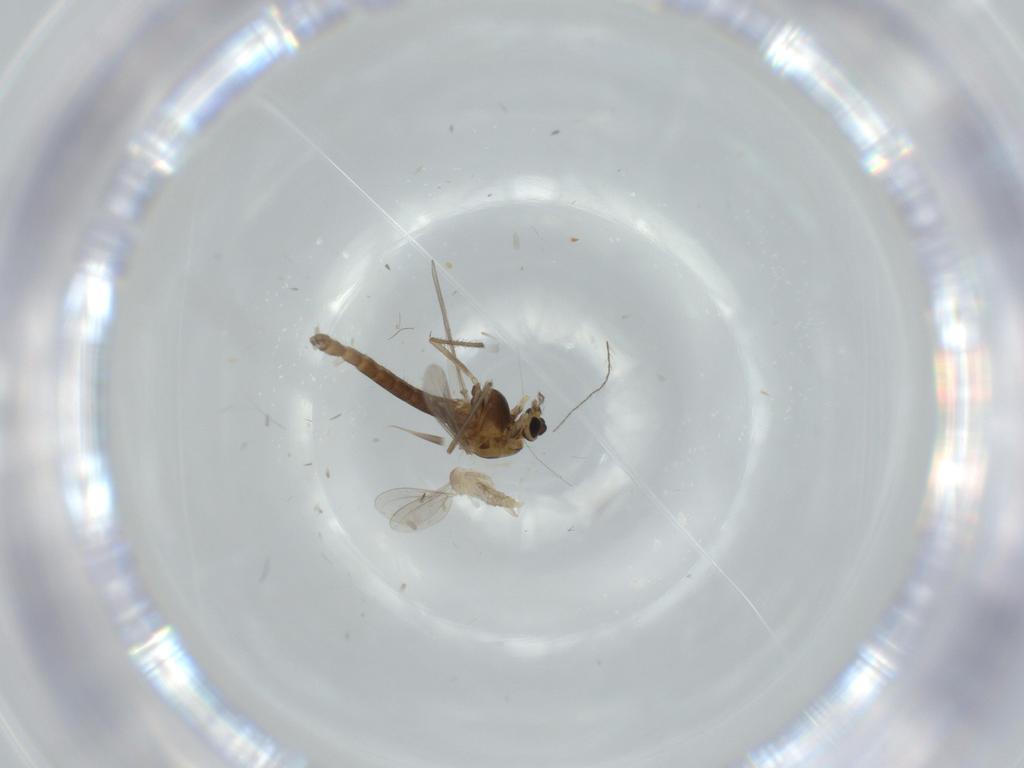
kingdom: Animalia
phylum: Arthropoda
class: Insecta
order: Diptera
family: Chironomidae
